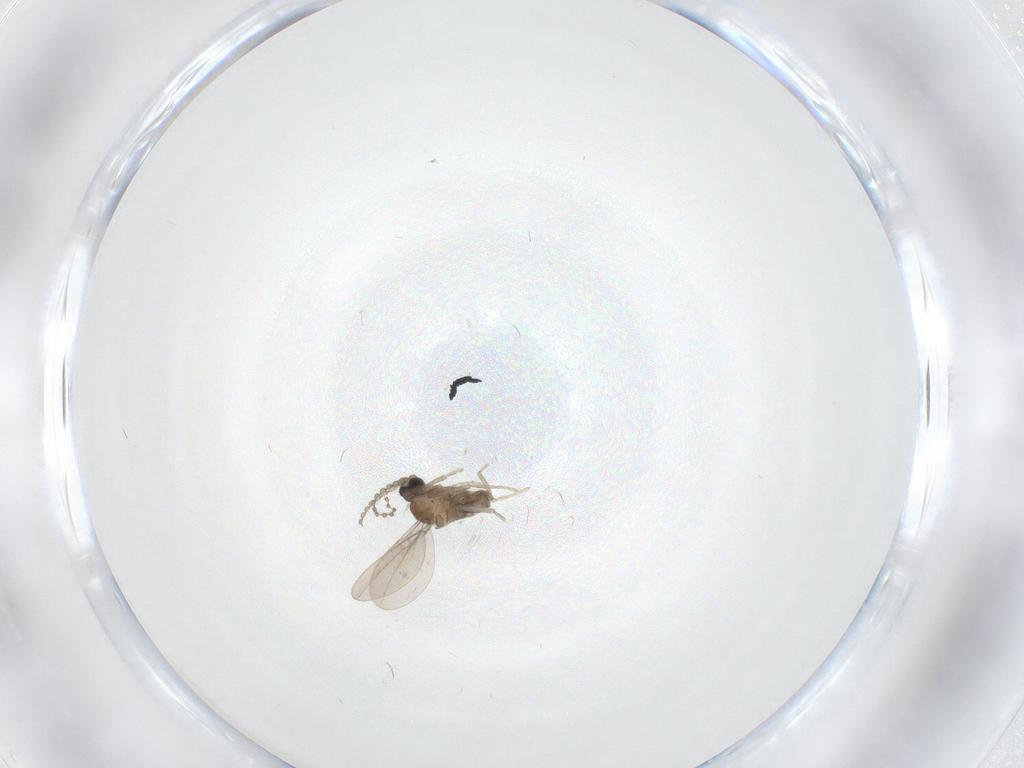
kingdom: Animalia
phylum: Arthropoda
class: Insecta
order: Diptera
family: Cecidomyiidae
